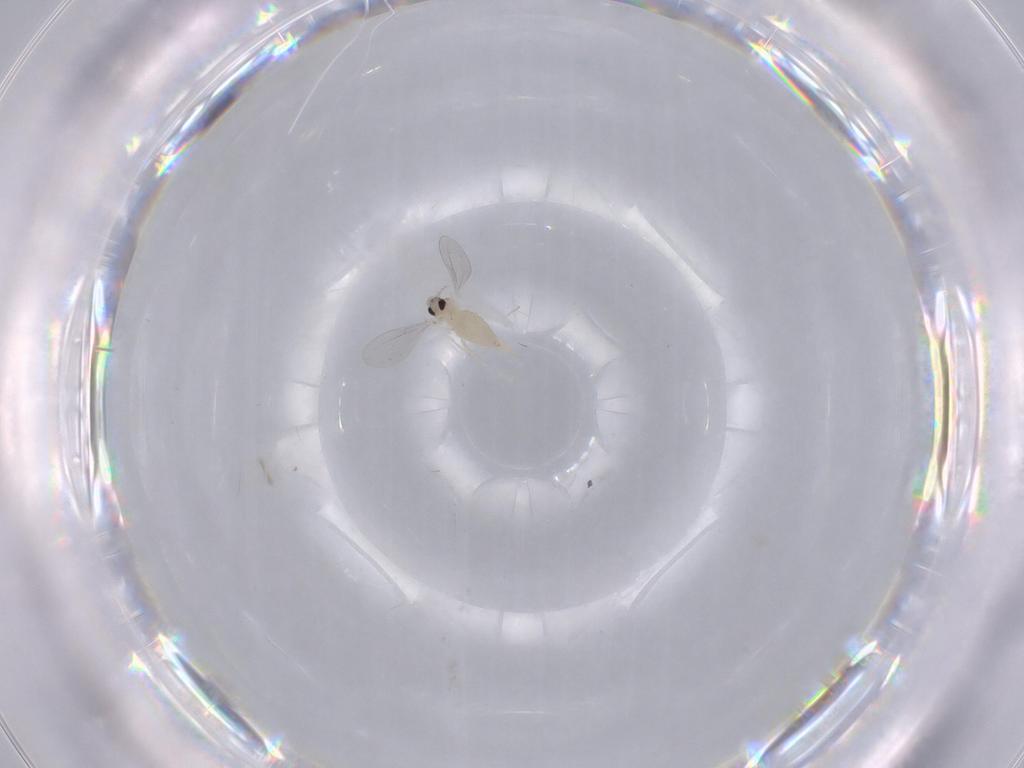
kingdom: Animalia
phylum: Arthropoda
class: Insecta
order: Diptera
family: Cecidomyiidae
